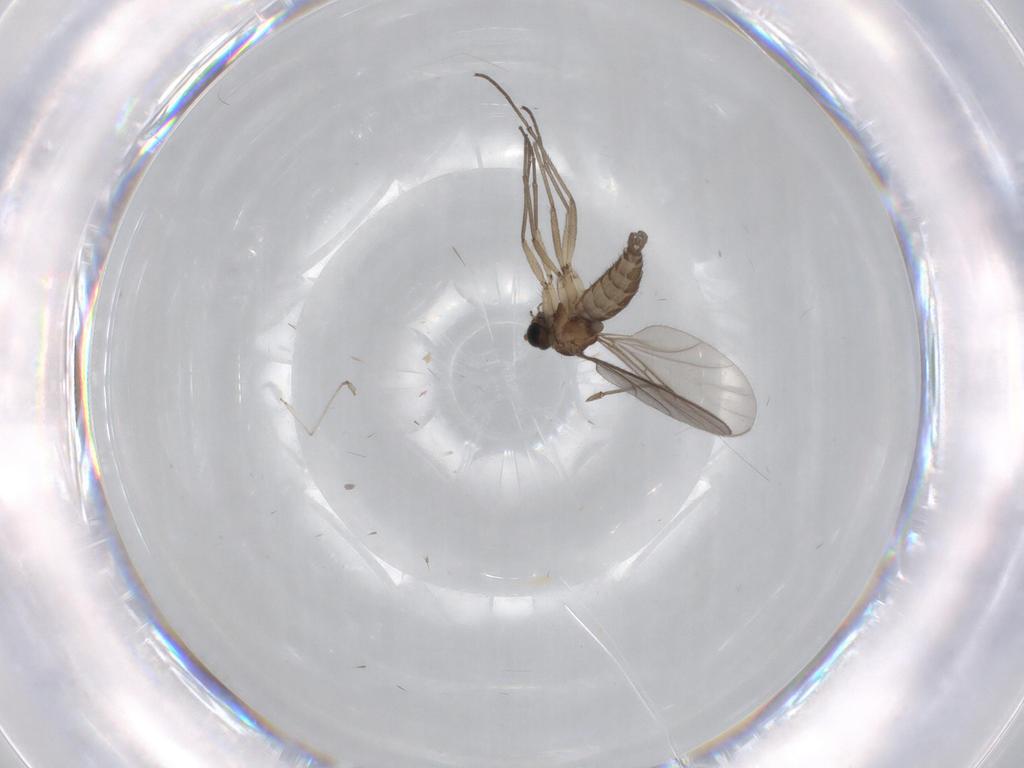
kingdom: Animalia
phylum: Arthropoda
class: Insecta
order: Diptera
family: Sciaridae
